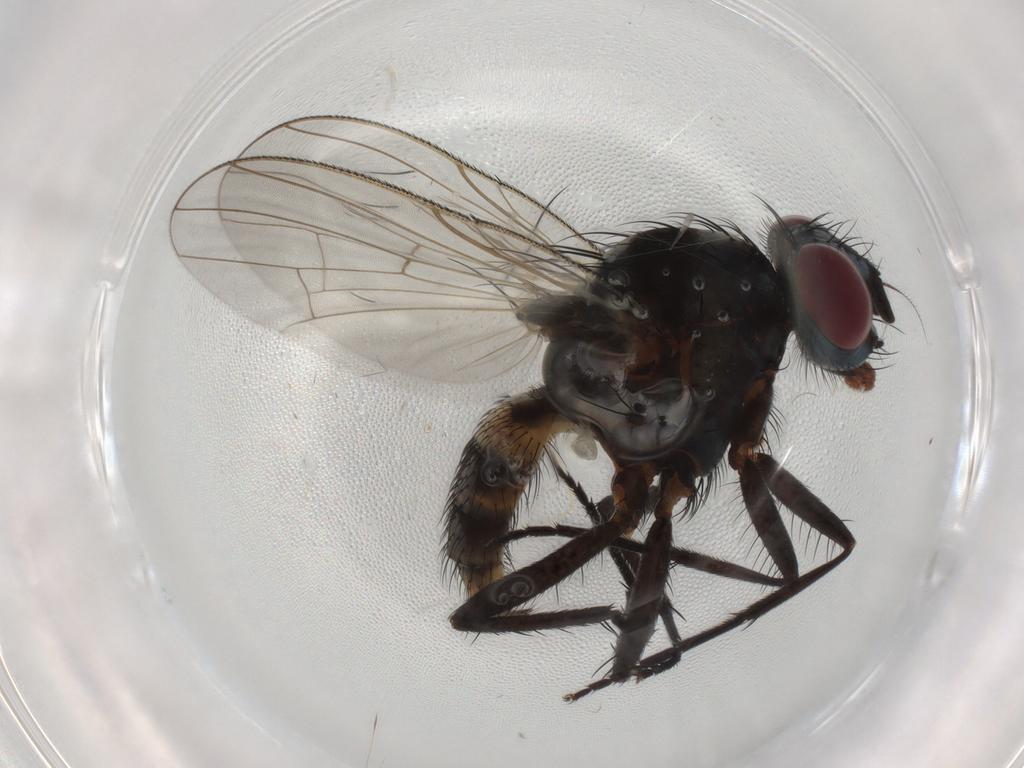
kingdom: Animalia
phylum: Arthropoda
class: Insecta
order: Diptera
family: Anthomyiidae
